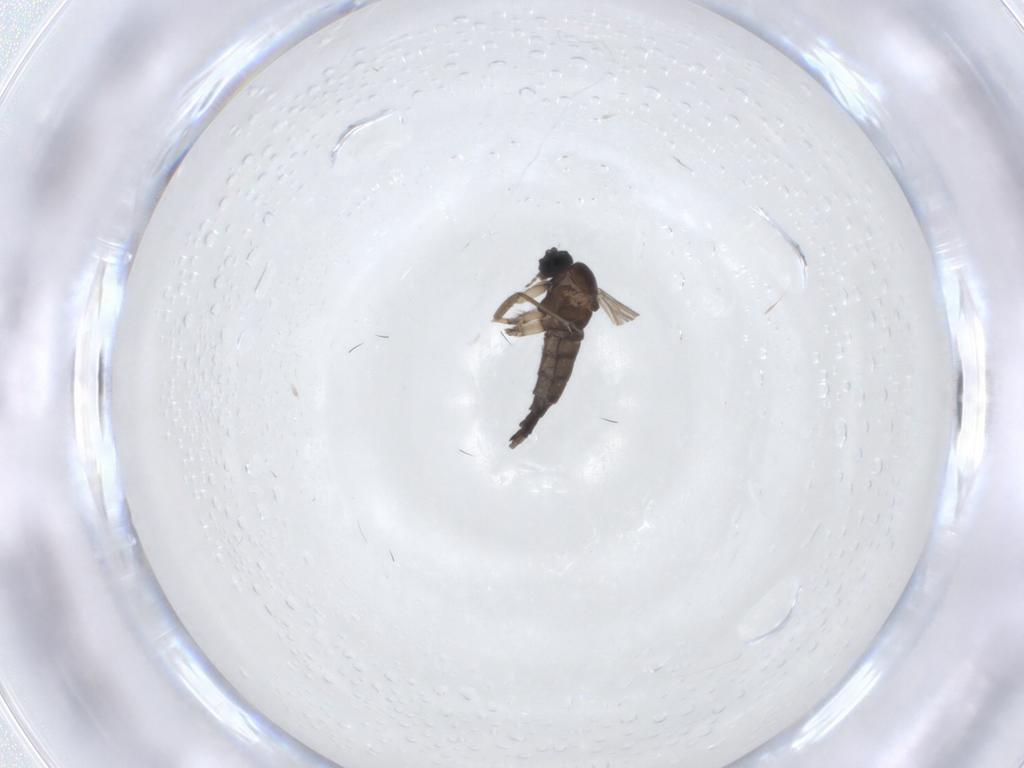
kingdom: Animalia
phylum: Arthropoda
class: Insecta
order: Diptera
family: Sciaridae
